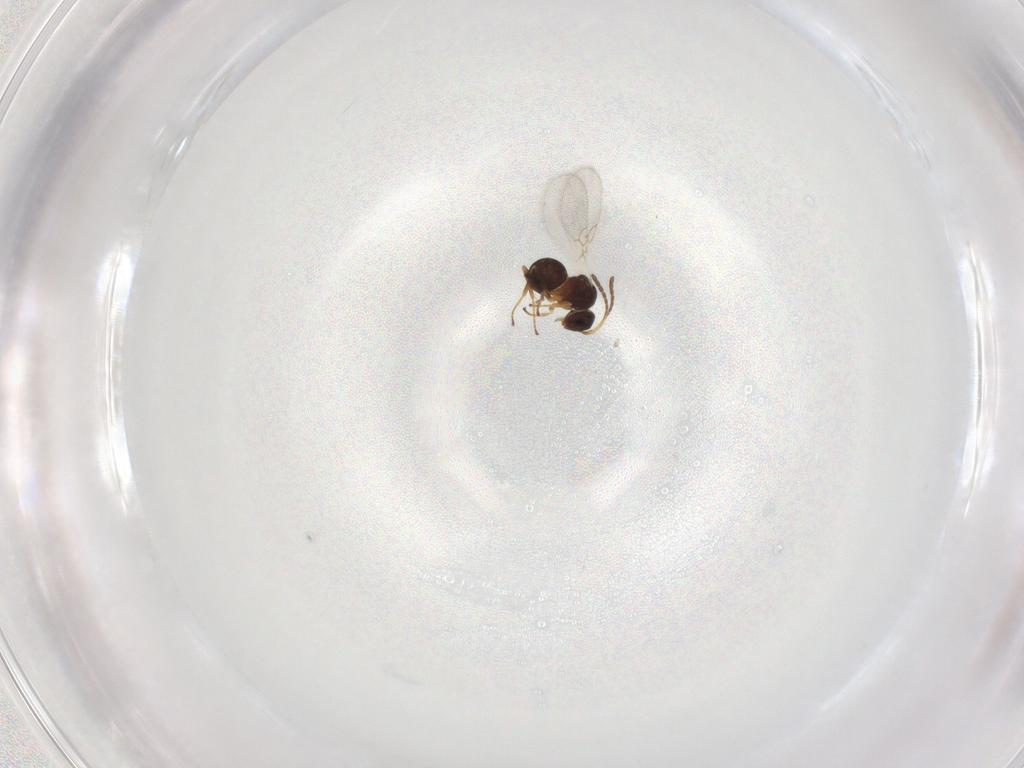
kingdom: Animalia
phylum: Arthropoda
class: Insecta
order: Hymenoptera
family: Figitidae
